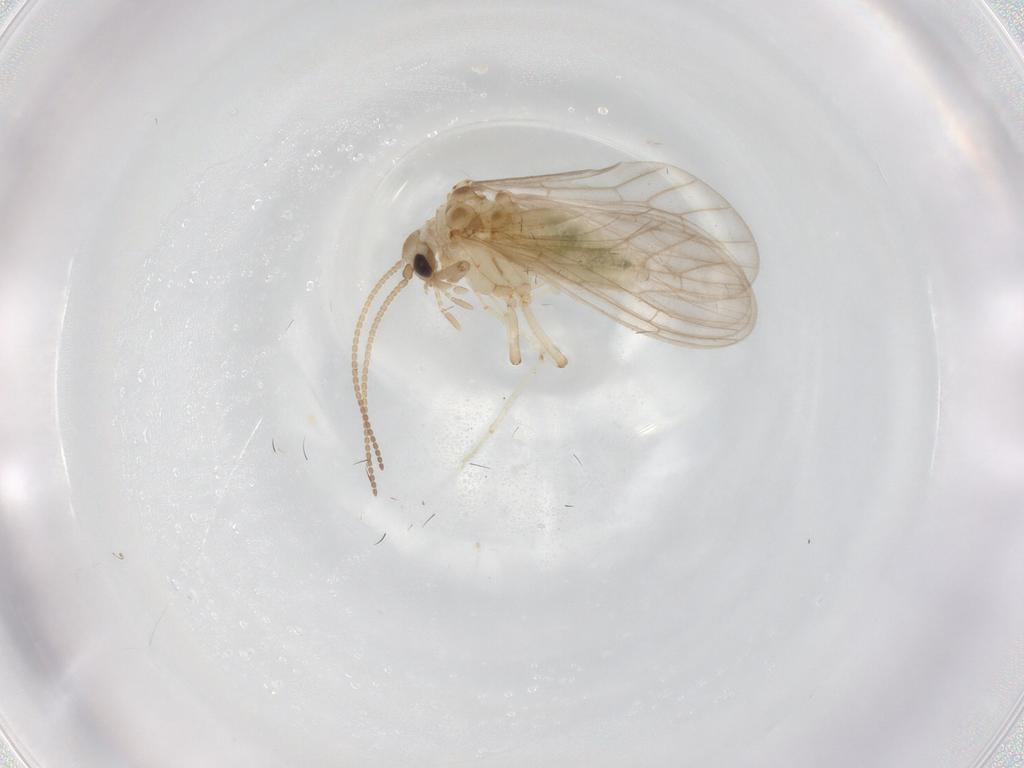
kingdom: Animalia
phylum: Arthropoda
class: Insecta
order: Neuroptera
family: Coniopterygidae
